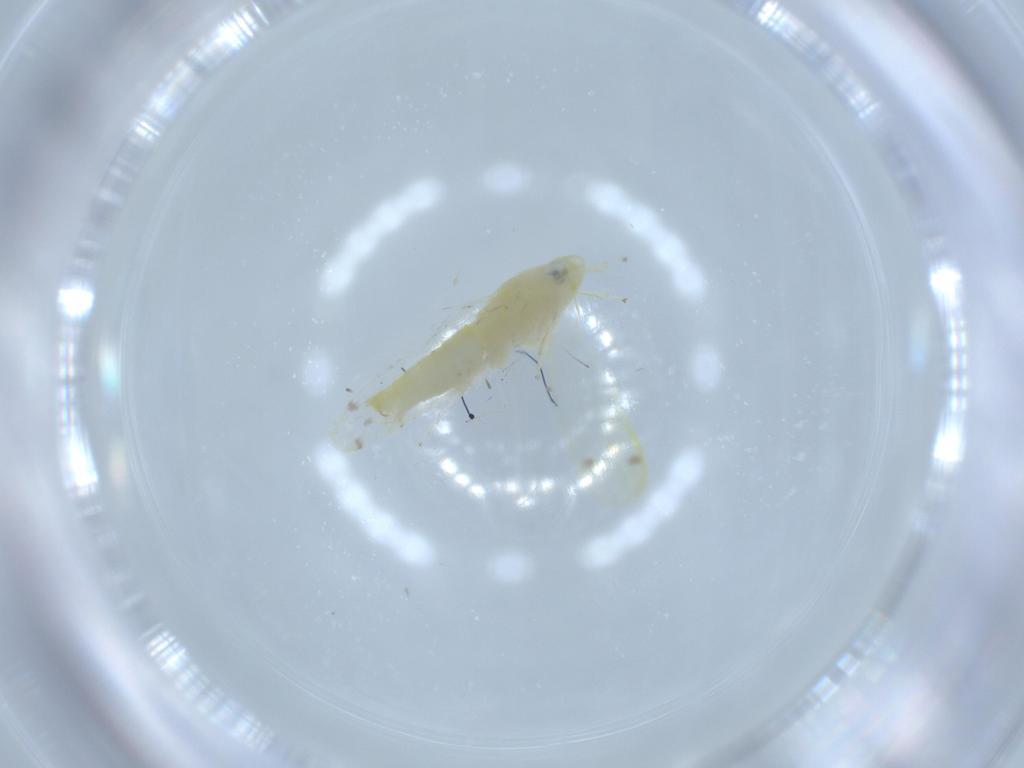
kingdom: Animalia
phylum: Arthropoda
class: Insecta
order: Hemiptera
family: Cicadellidae
